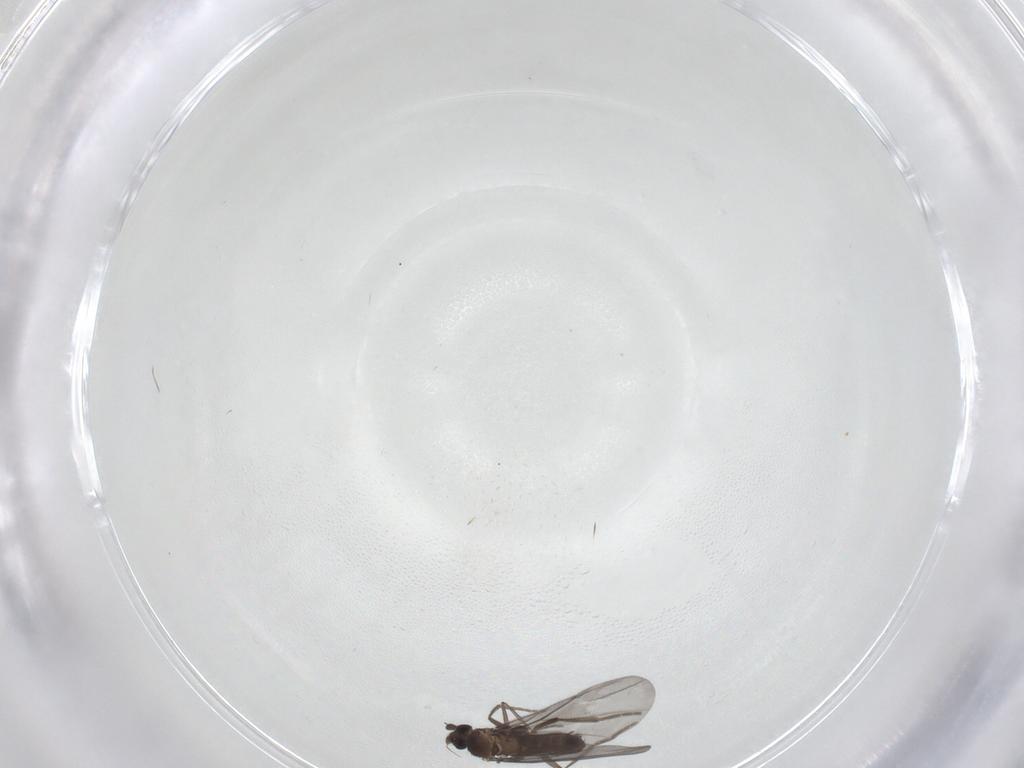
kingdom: Animalia
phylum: Arthropoda
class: Insecta
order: Diptera
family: Phoridae
